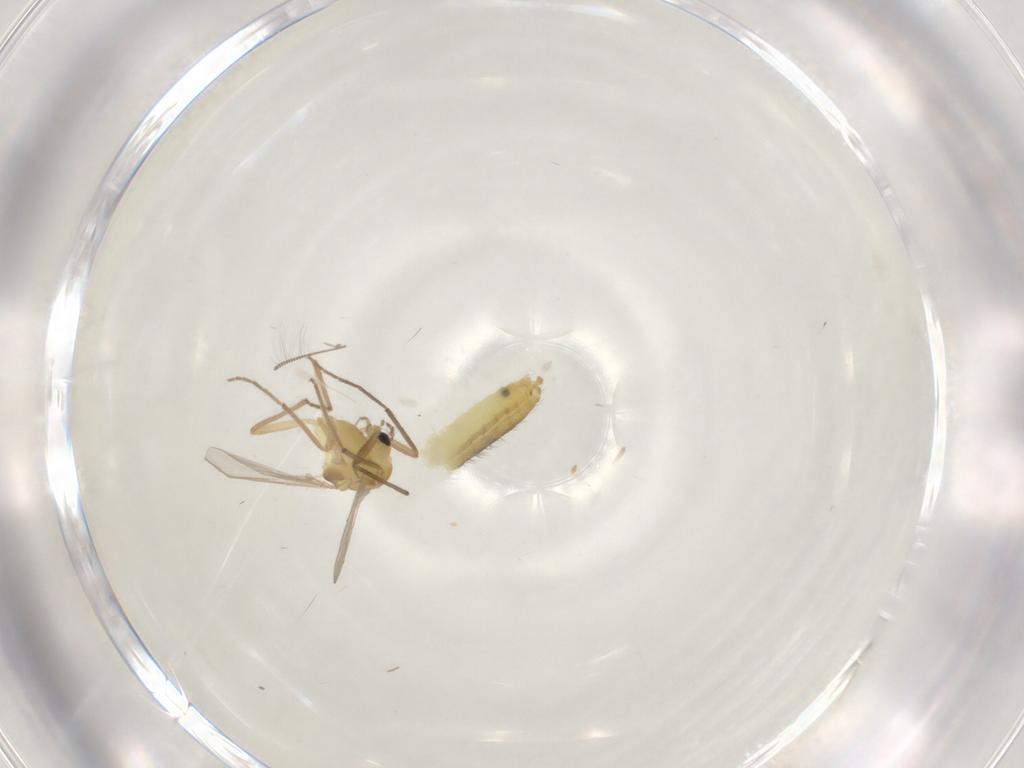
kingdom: Animalia
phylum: Arthropoda
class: Insecta
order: Diptera
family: Chironomidae
